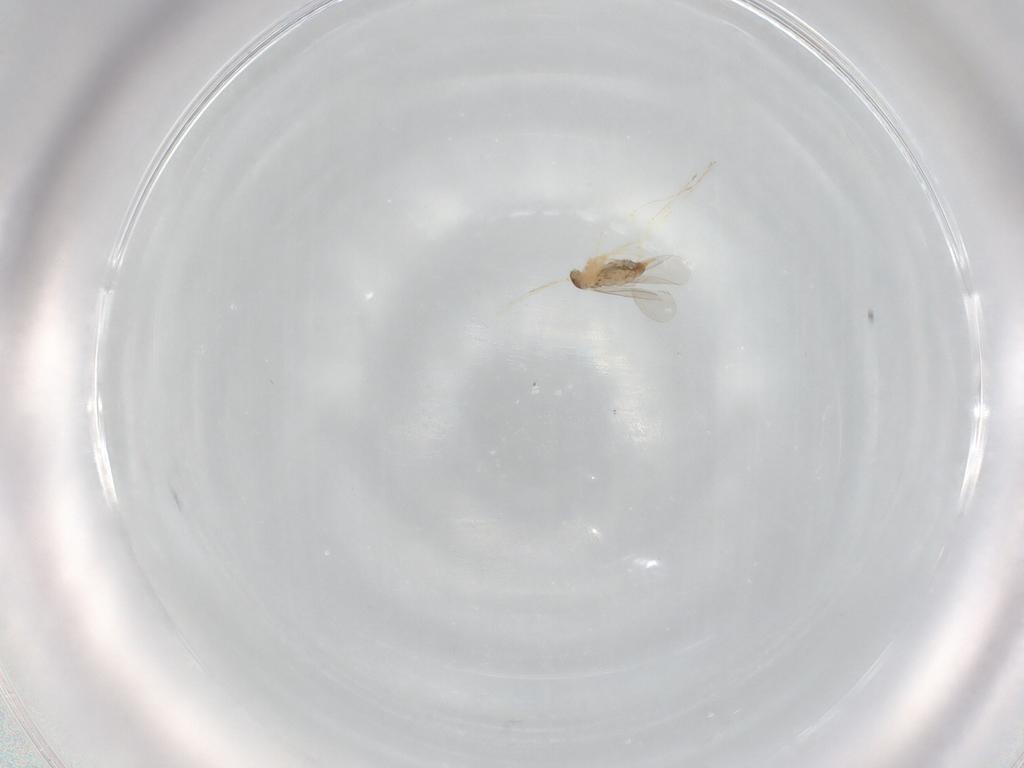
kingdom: Animalia
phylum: Arthropoda
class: Insecta
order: Diptera
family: Cecidomyiidae
